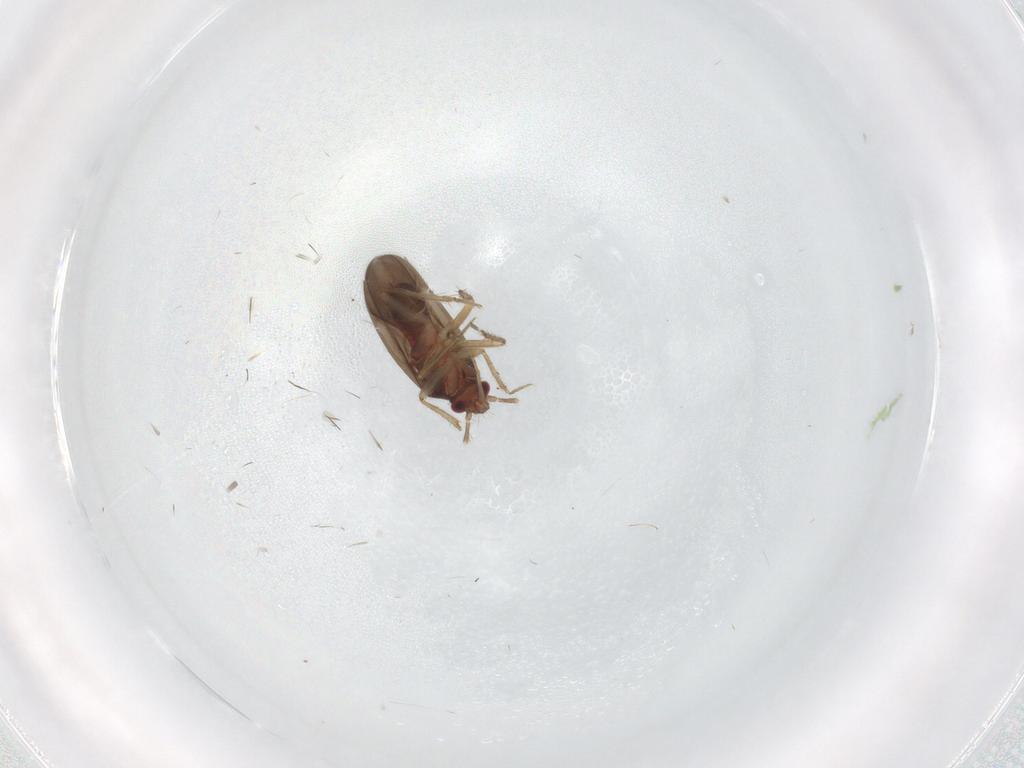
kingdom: Animalia
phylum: Arthropoda
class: Insecta
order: Hemiptera
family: Ceratocombidae
